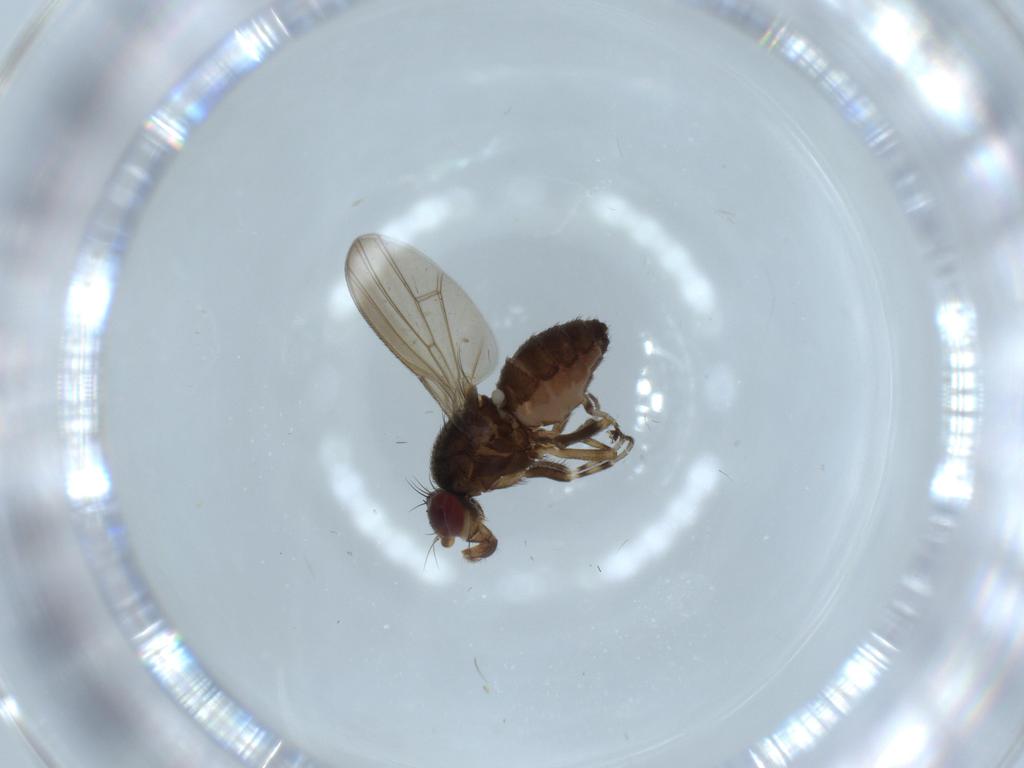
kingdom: Animalia
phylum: Arthropoda
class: Insecta
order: Diptera
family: Heleomyzidae
